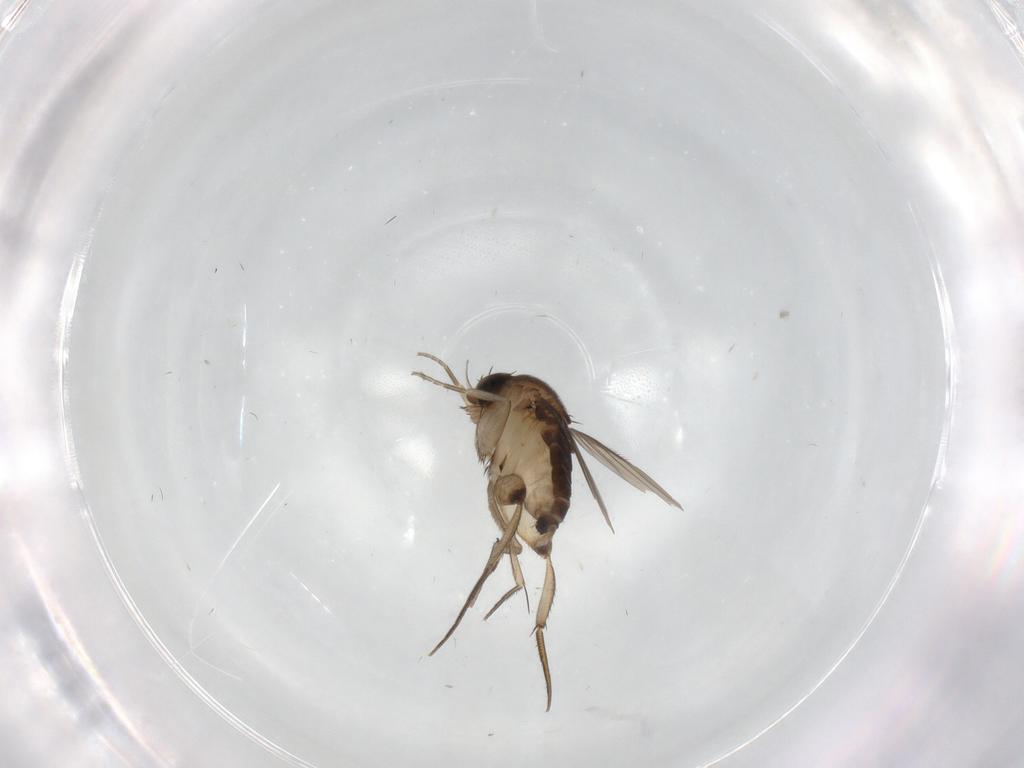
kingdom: Animalia
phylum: Arthropoda
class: Insecta
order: Diptera
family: Phoridae
